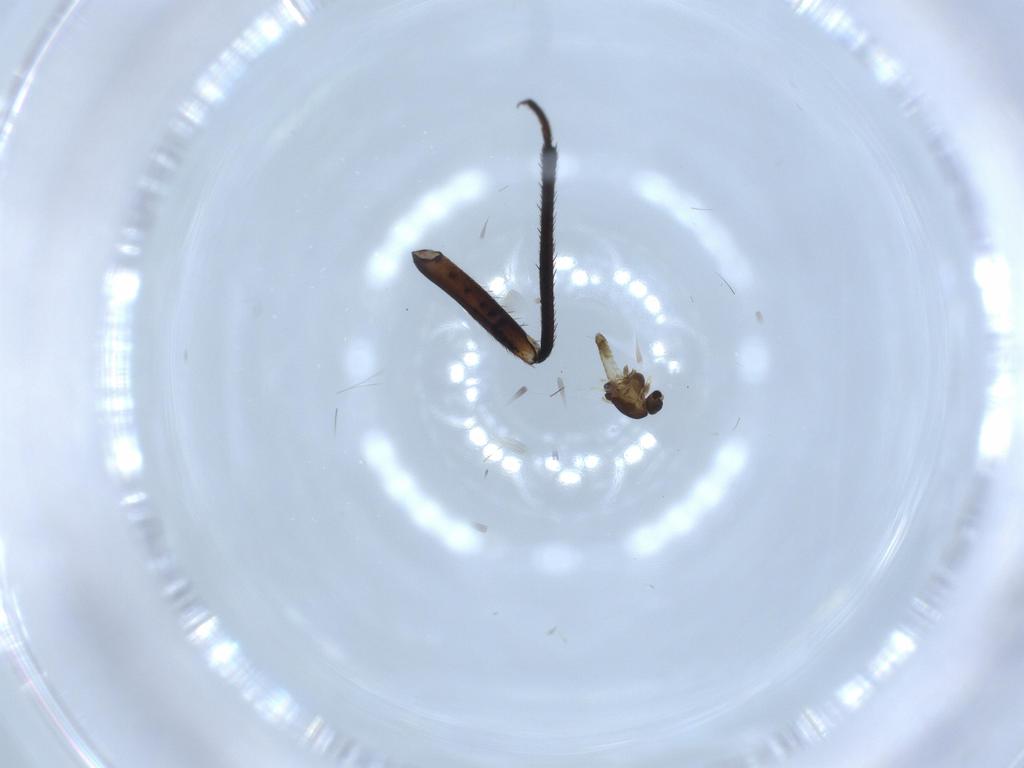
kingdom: Animalia
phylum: Arthropoda
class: Insecta
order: Diptera
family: Chironomidae
